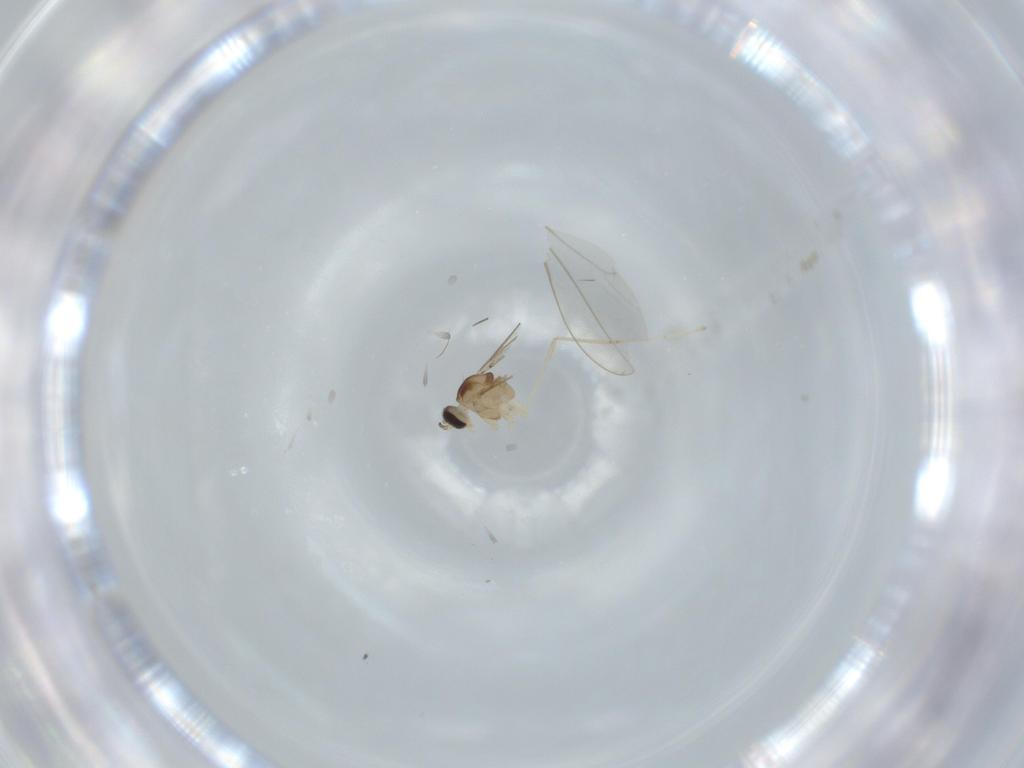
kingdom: Animalia
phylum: Arthropoda
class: Insecta
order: Diptera
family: Cecidomyiidae
